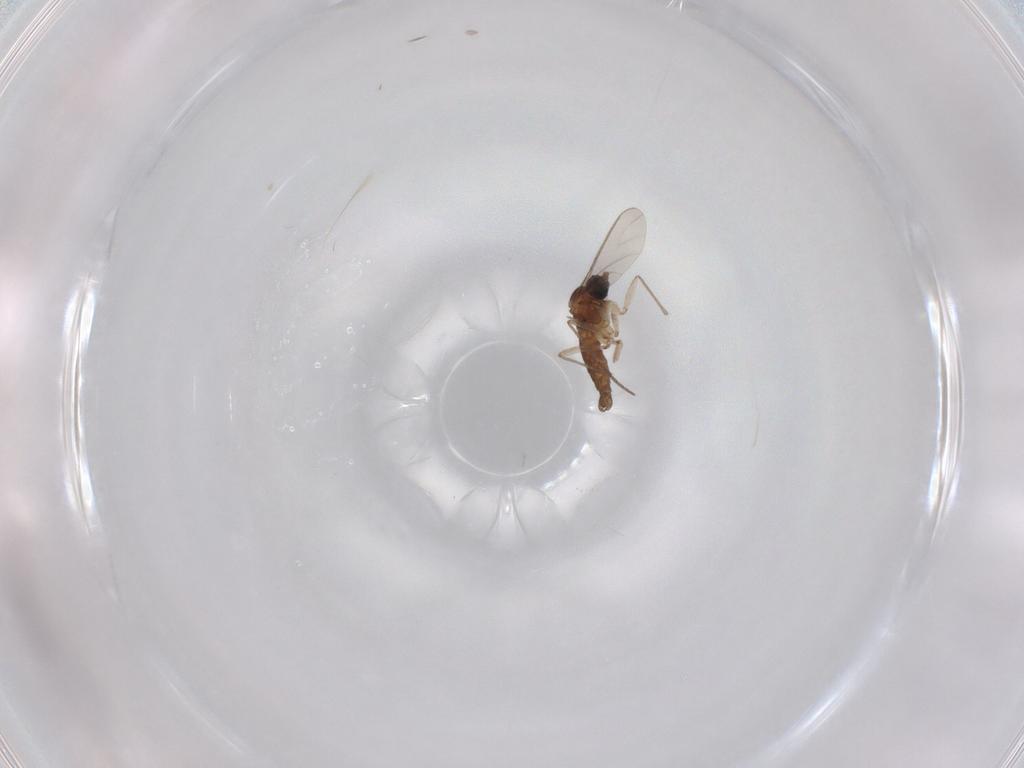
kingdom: Animalia
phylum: Arthropoda
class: Insecta
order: Diptera
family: Sciaridae
